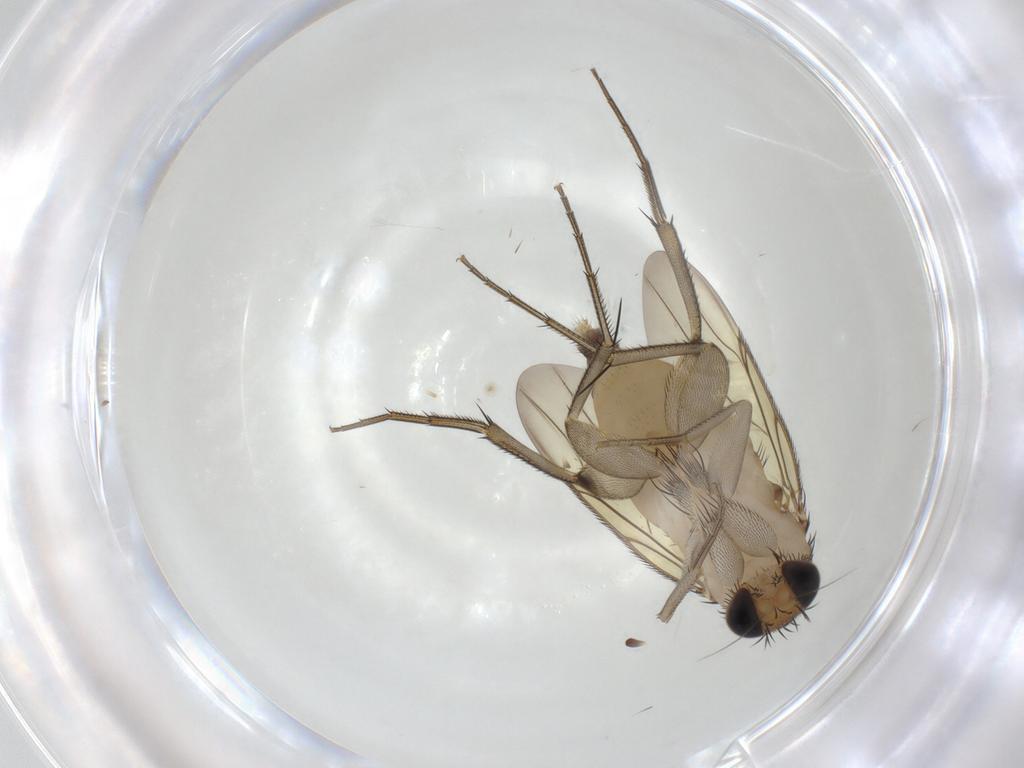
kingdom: Animalia
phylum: Arthropoda
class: Insecta
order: Diptera
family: Phoridae
